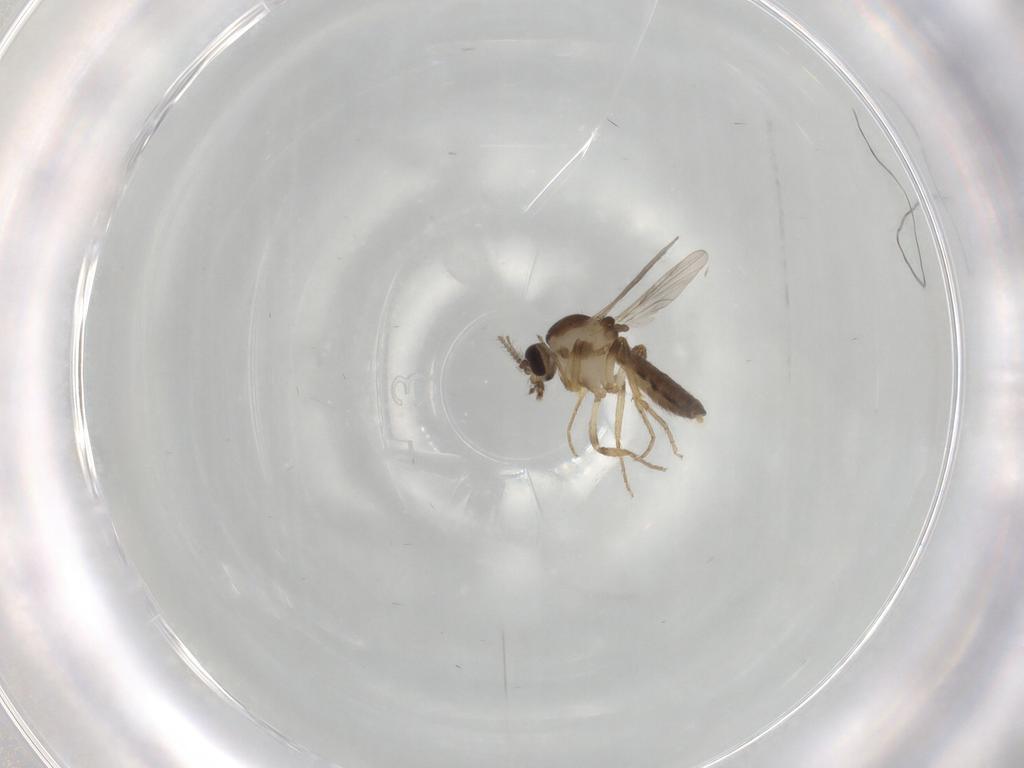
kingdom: Animalia
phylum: Arthropoda
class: Insecta
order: Diptera
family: Ceratopogonidae
